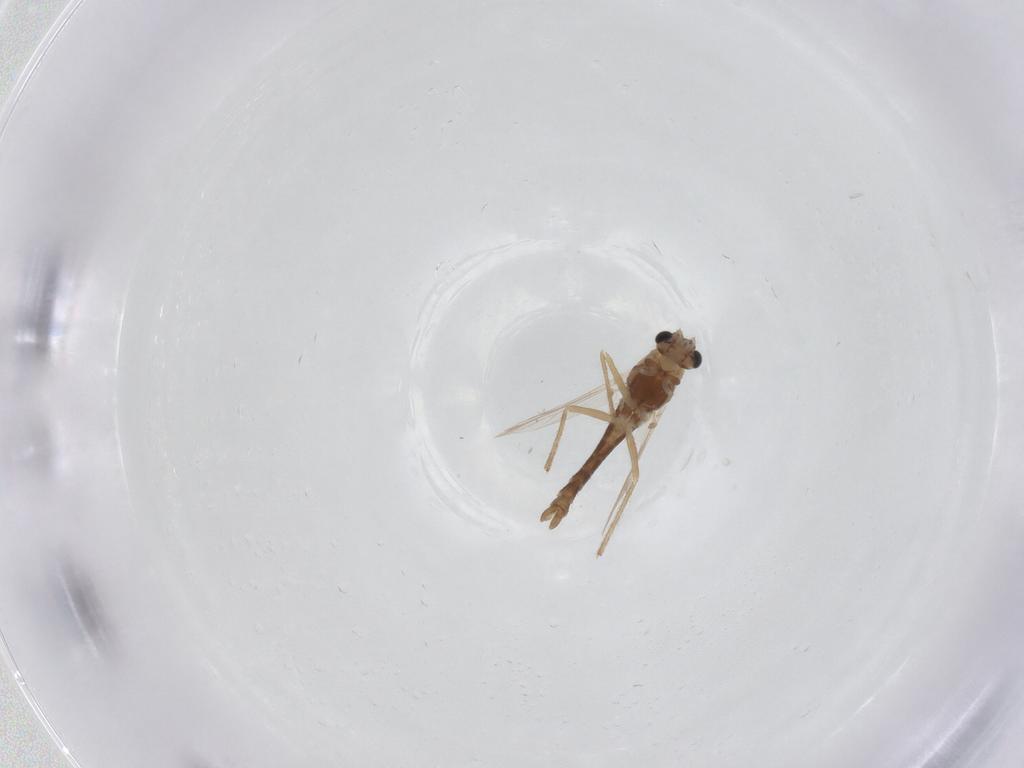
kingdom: Animalia
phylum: Arthropoda
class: Insecta
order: Diptera
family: Chironomidae
